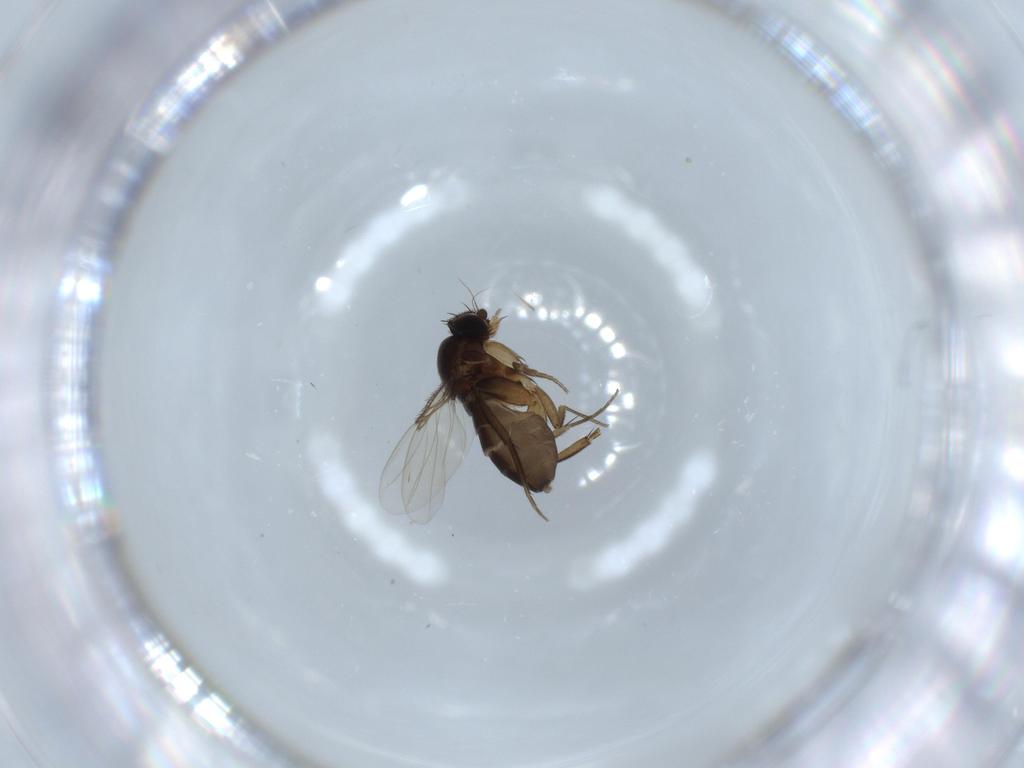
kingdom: Animalia
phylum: Arthropoda
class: Insecta
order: Diptera
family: Phoridae
